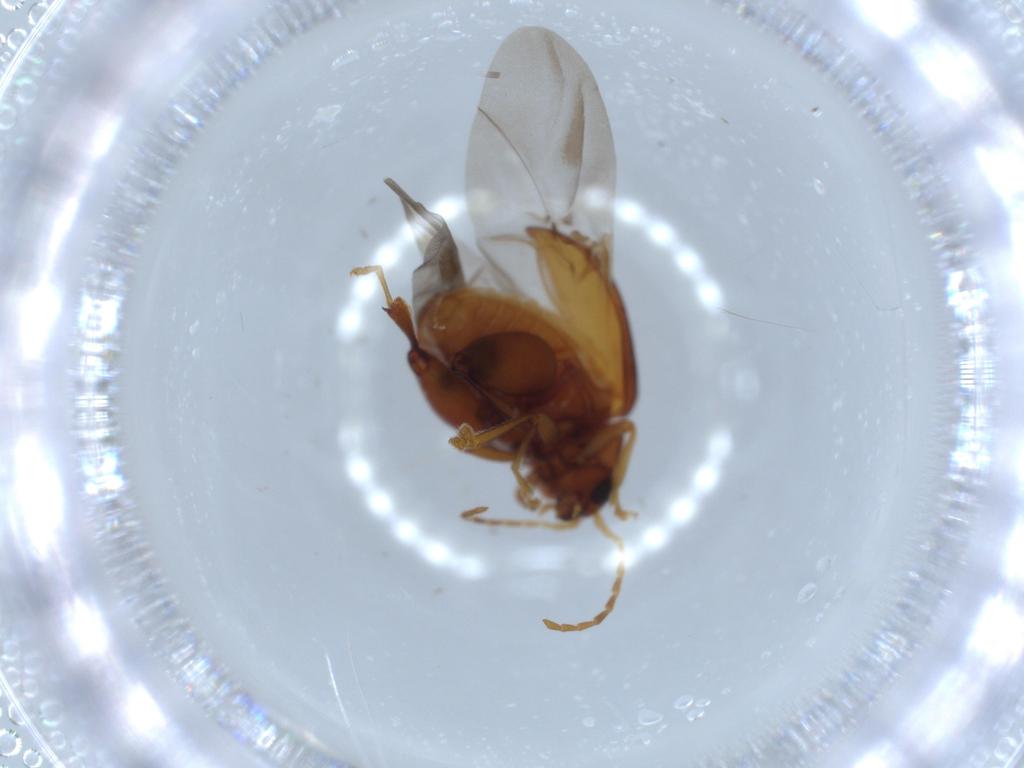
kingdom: Animalia
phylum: Arthropoda
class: Insecta
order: Coleoptera
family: Chrysomelidae
